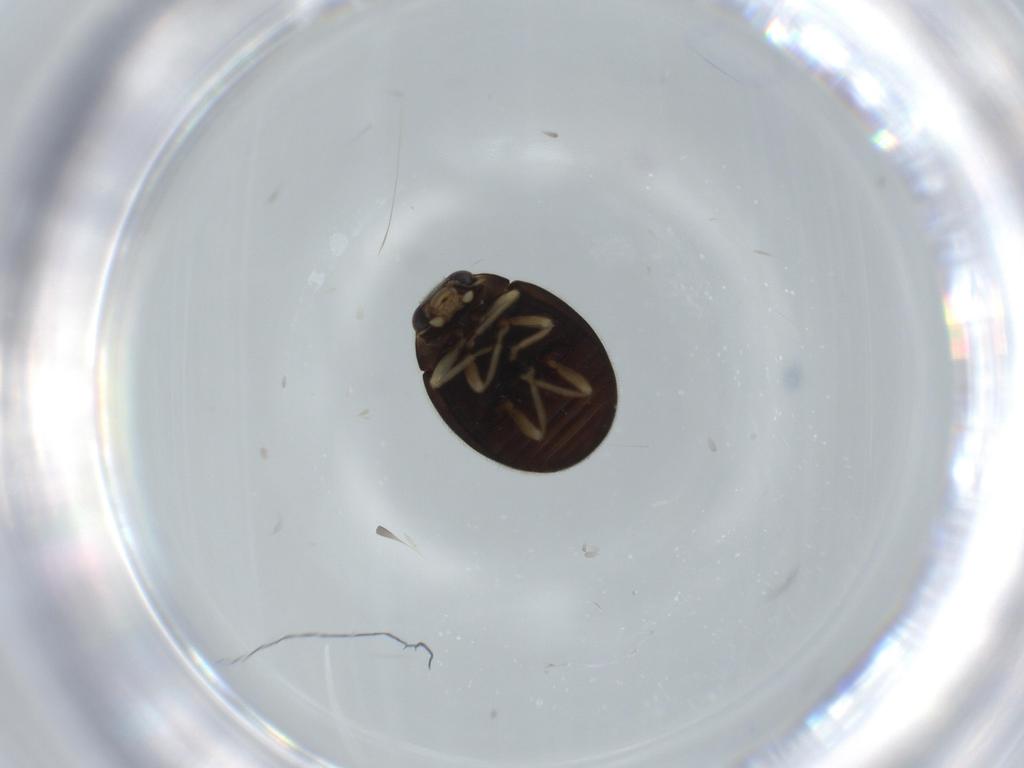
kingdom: Animalia
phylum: Arthropoda
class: Insecta
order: Coleoptera
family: Coccinellidae
